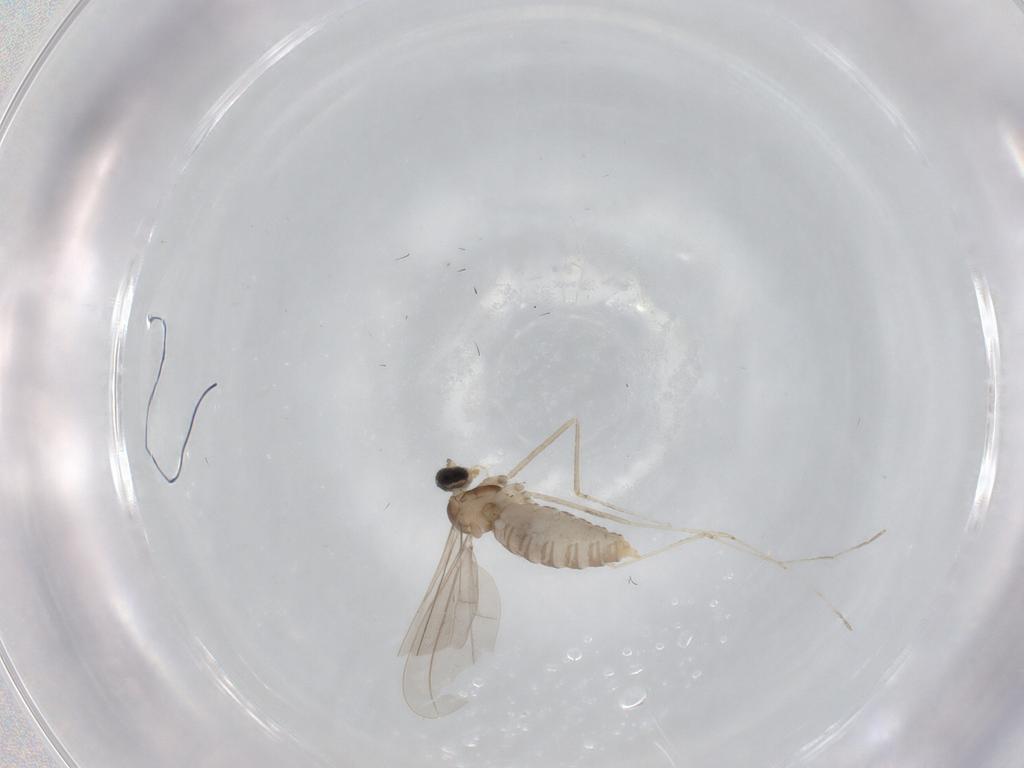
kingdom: Animalia
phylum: Arthropoda
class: Insecta
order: Diptera
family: Cecidomyiidae
